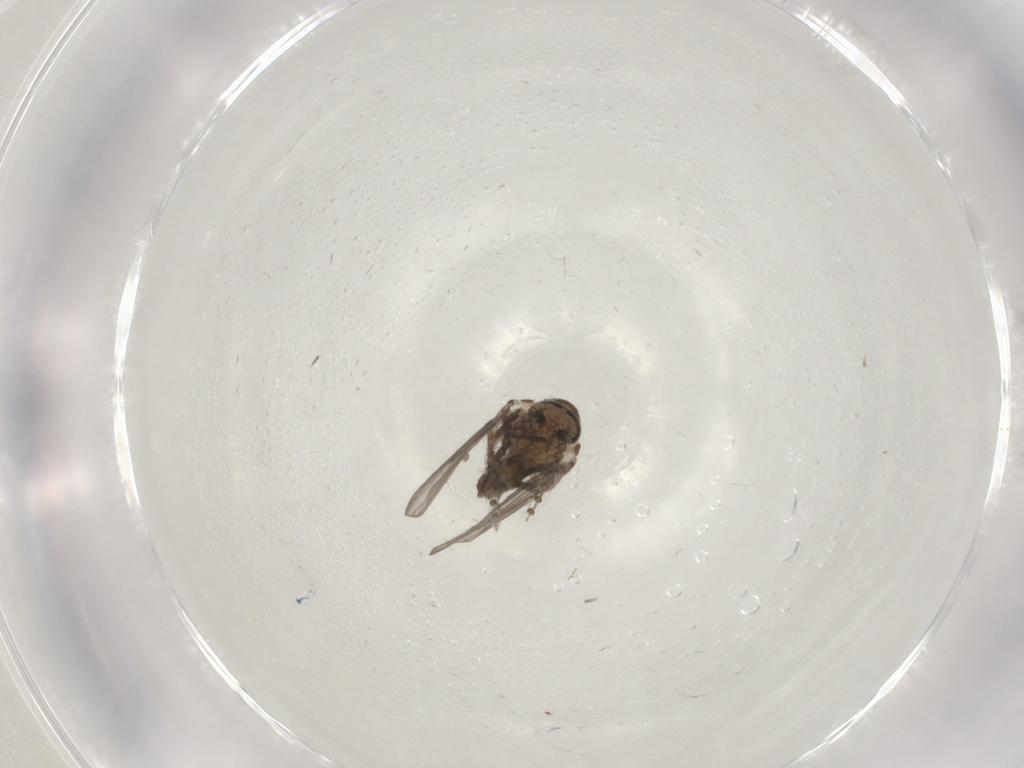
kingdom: Animalia
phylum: Arthropoda
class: Insecta
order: Diptera
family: Psychodidae
